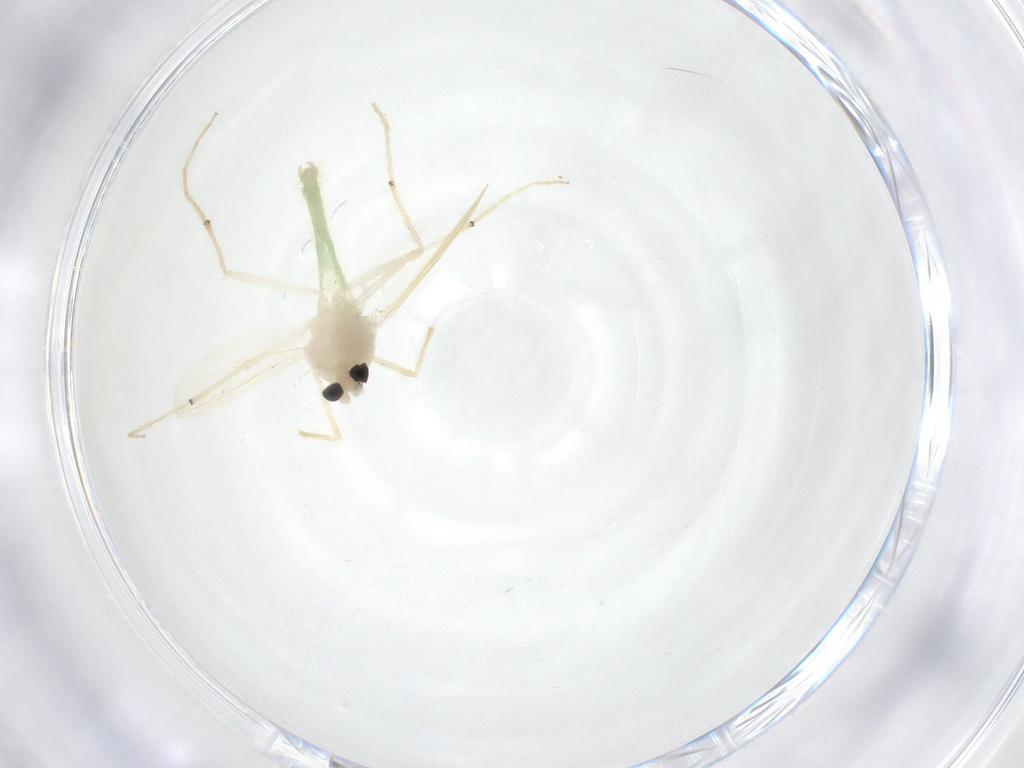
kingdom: Animalia
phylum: Arthropoda
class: Insecta
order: Diptera
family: Chironomidae
